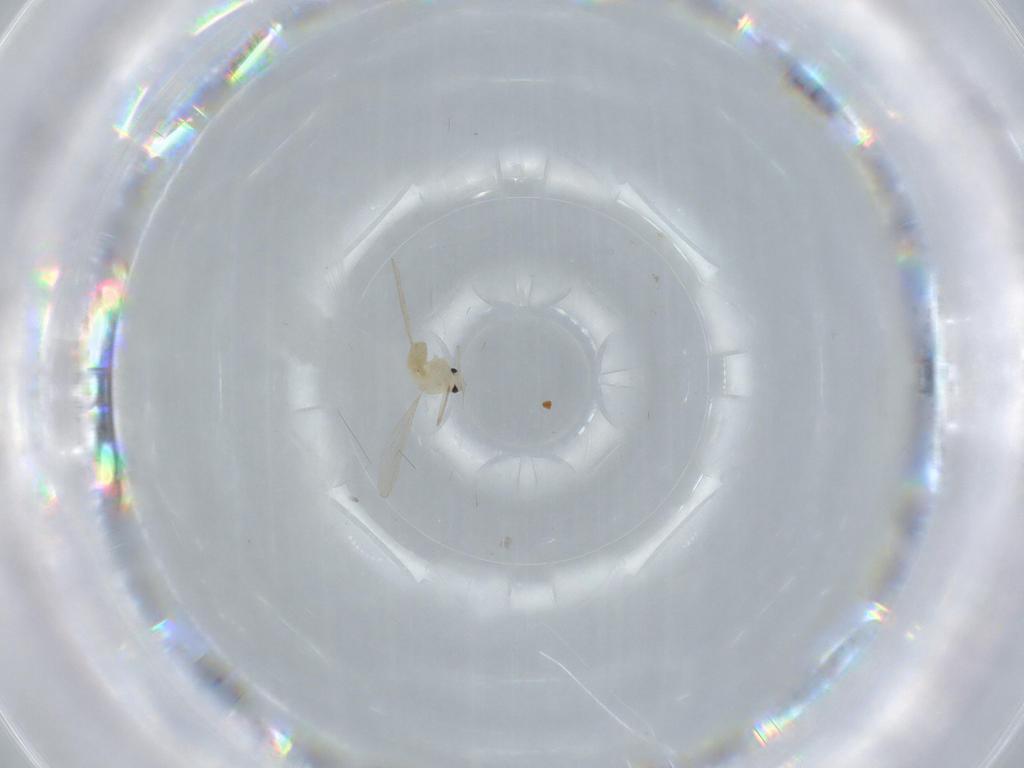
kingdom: Animalia
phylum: Arthropoda
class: Insecta
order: Diptera
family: Chironomidae
